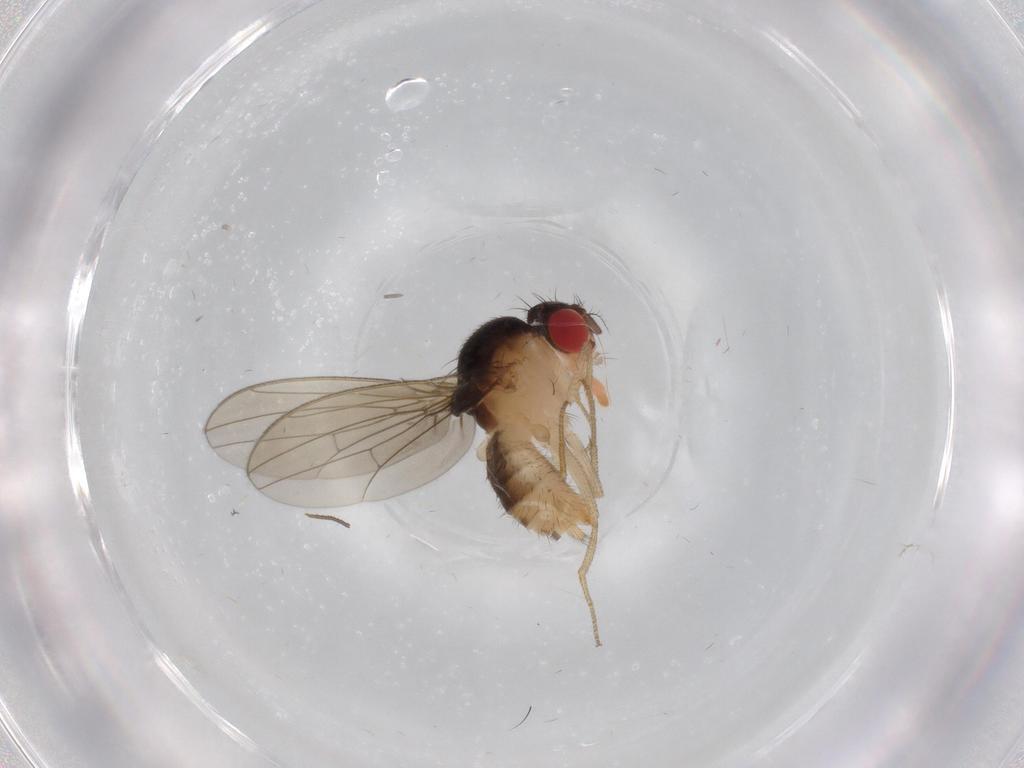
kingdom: Animalia
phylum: Arthropoda
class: Insecta
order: Diptera
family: Drosophilidae
